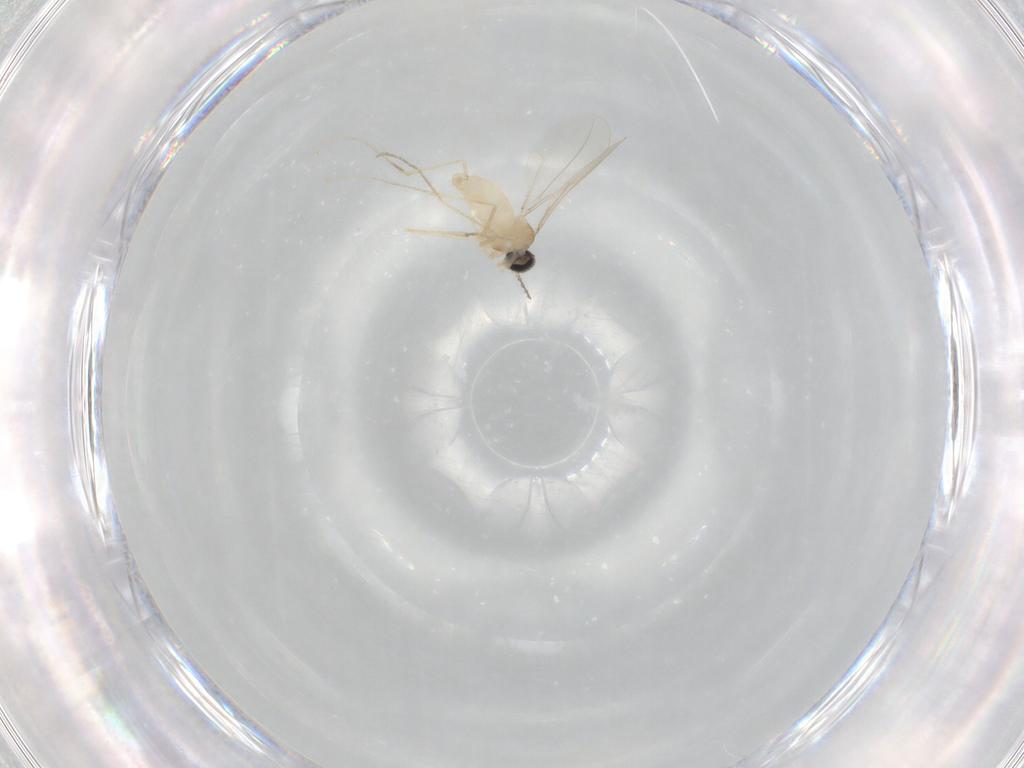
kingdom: Animalia
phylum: Arthropoda
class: Insecta
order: Diptera
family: Cecidomyiidae
